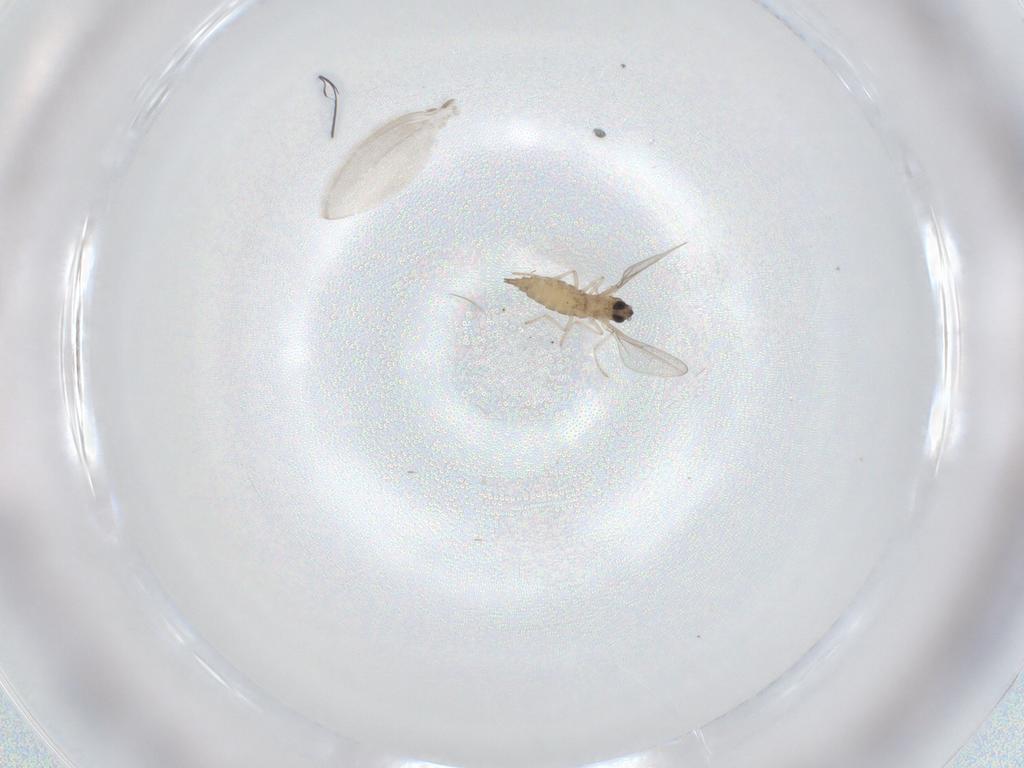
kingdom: Animalia
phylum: Arthropoda
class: Insecta
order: Diptera
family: Cecidomyiidae
